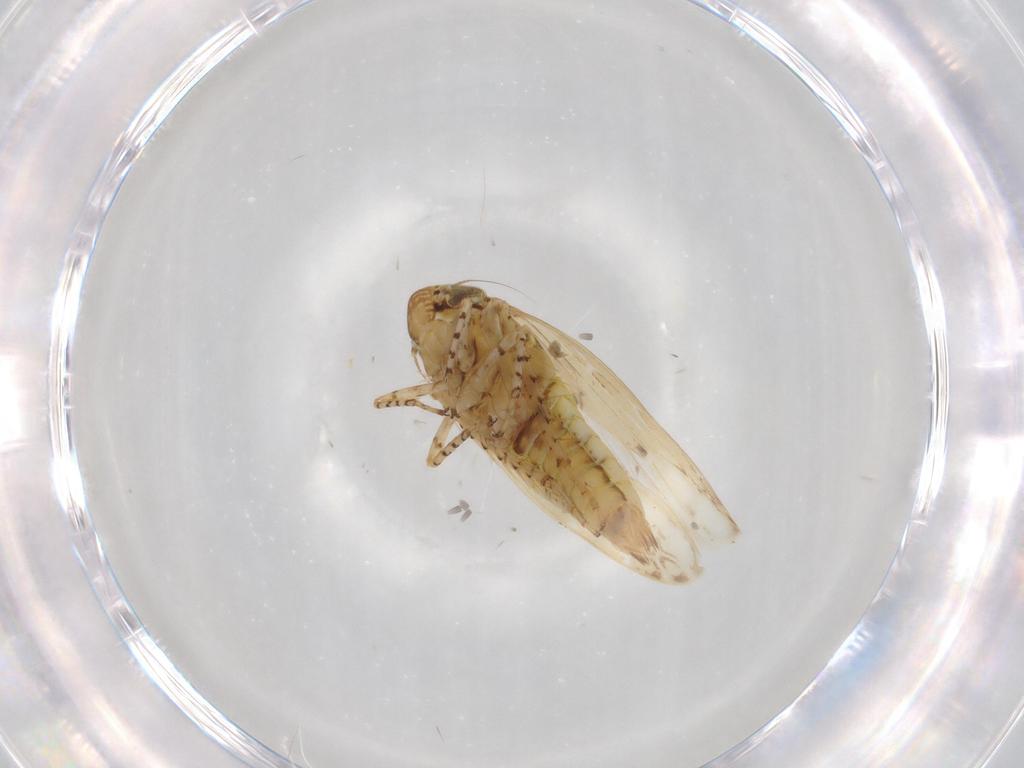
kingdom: Animalia
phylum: Arthropoda
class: Insecta
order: Hemiptera
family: Cicadellidae
